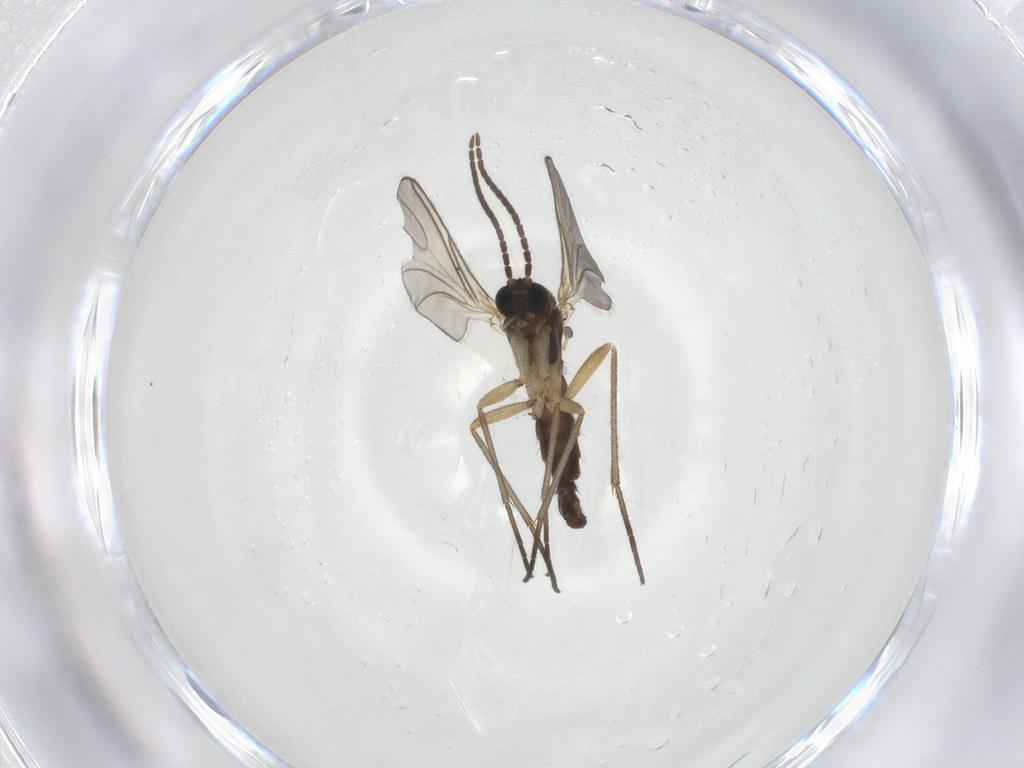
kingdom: Animalia
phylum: Arthropoda
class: Insecta
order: Diptera
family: Sciaridae
